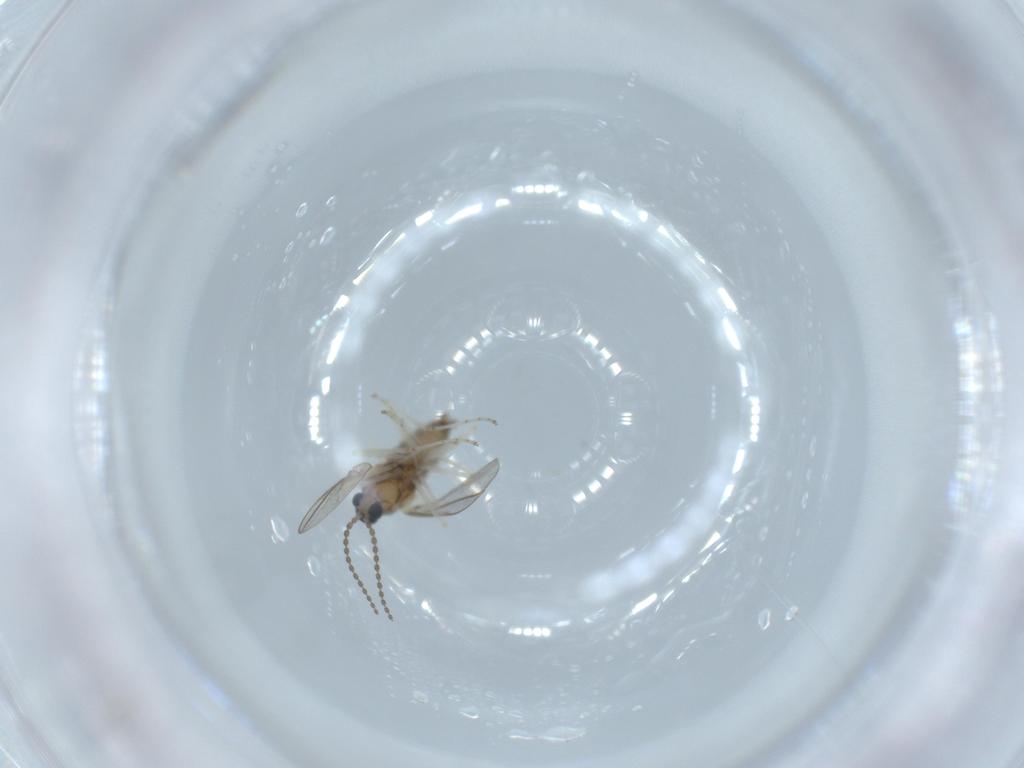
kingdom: Animalia
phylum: Arthropoda
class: Insecta
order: Diptera
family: Cecidomyiidae
